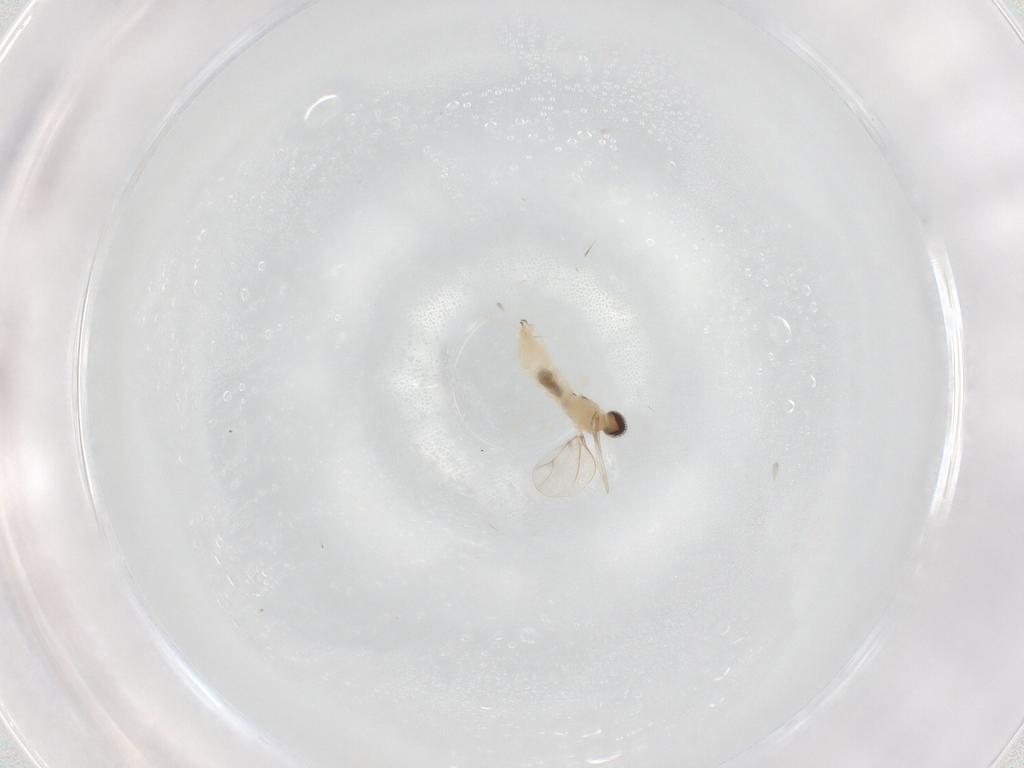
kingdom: Animalia
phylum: Arthropoda
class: Insecta
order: Diptera
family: Cecidomyiidae
